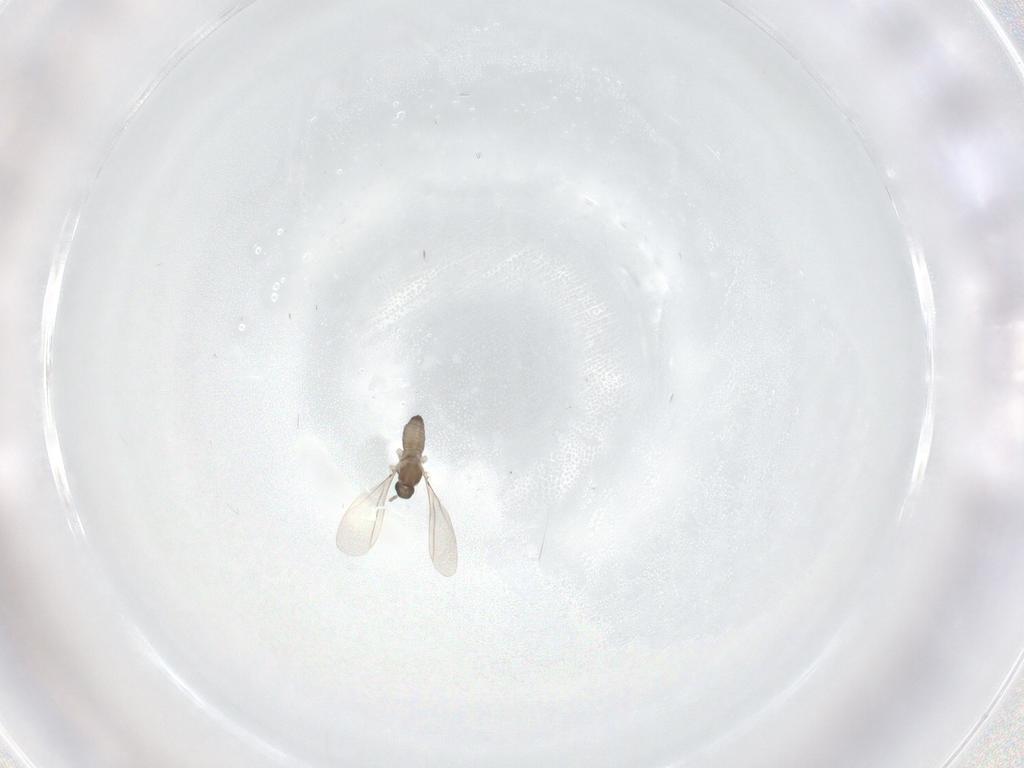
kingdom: Animalia
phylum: Arthropoda
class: Insecta
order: Diptera
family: Cecidomyiidae
